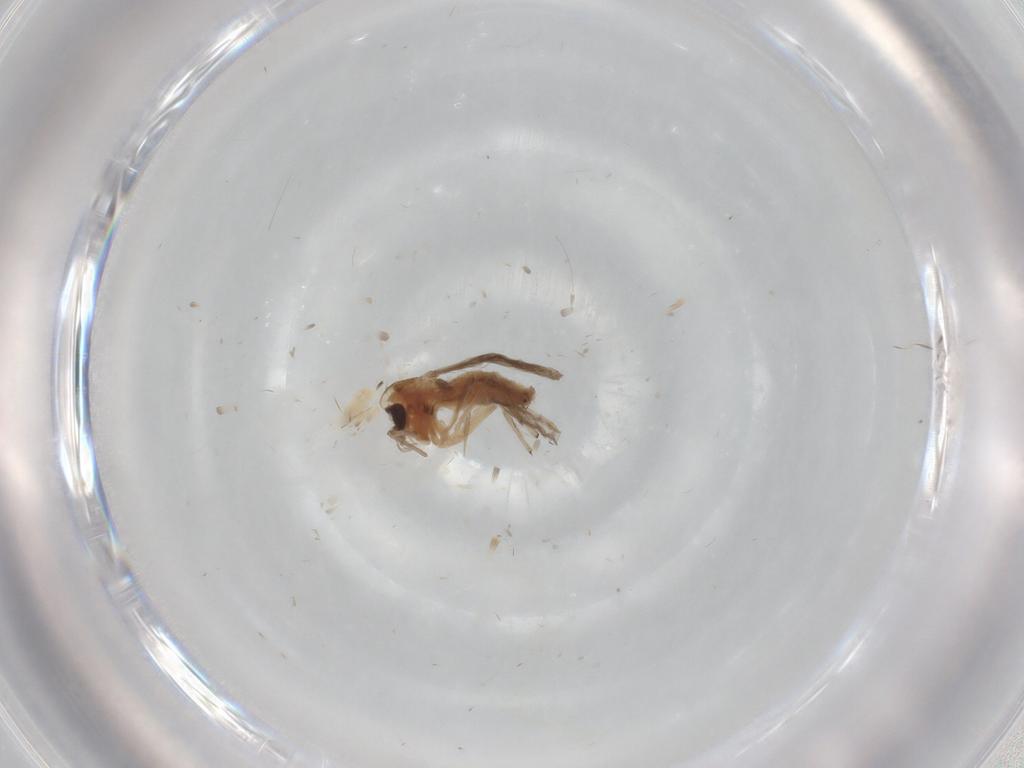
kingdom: Animalia
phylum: Arthropoda
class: Insecta
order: Diptera
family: Chironomidae
